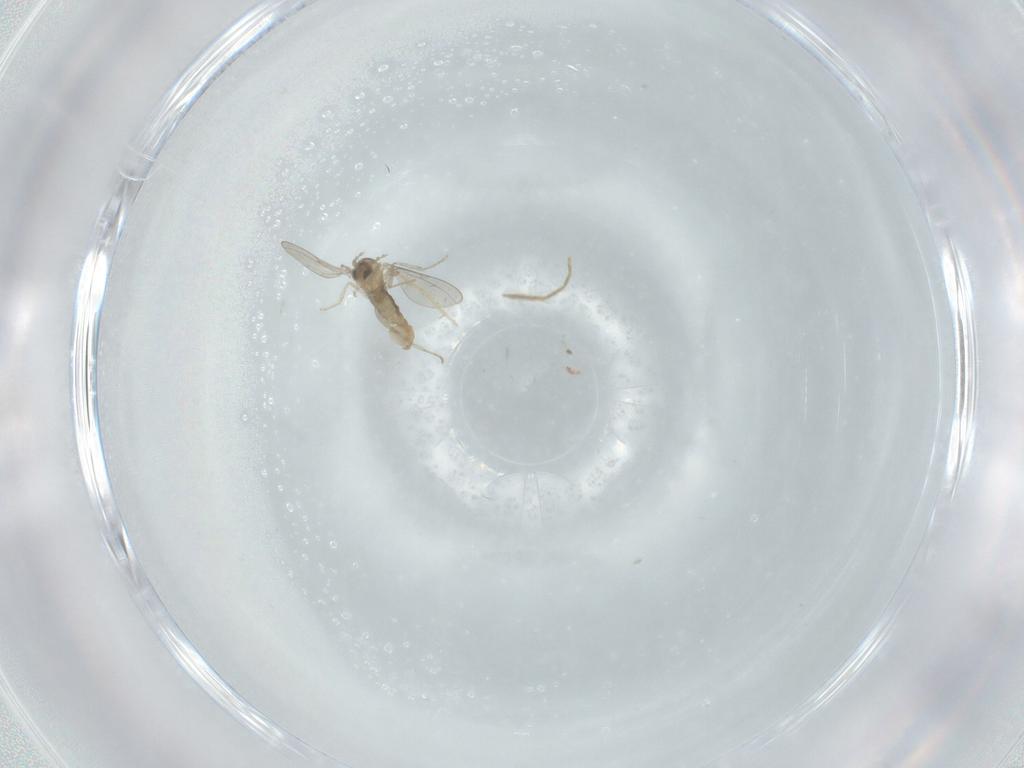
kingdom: Animalia
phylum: Arthropoda
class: Insecta
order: Diptera
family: Cecidomyiidae
